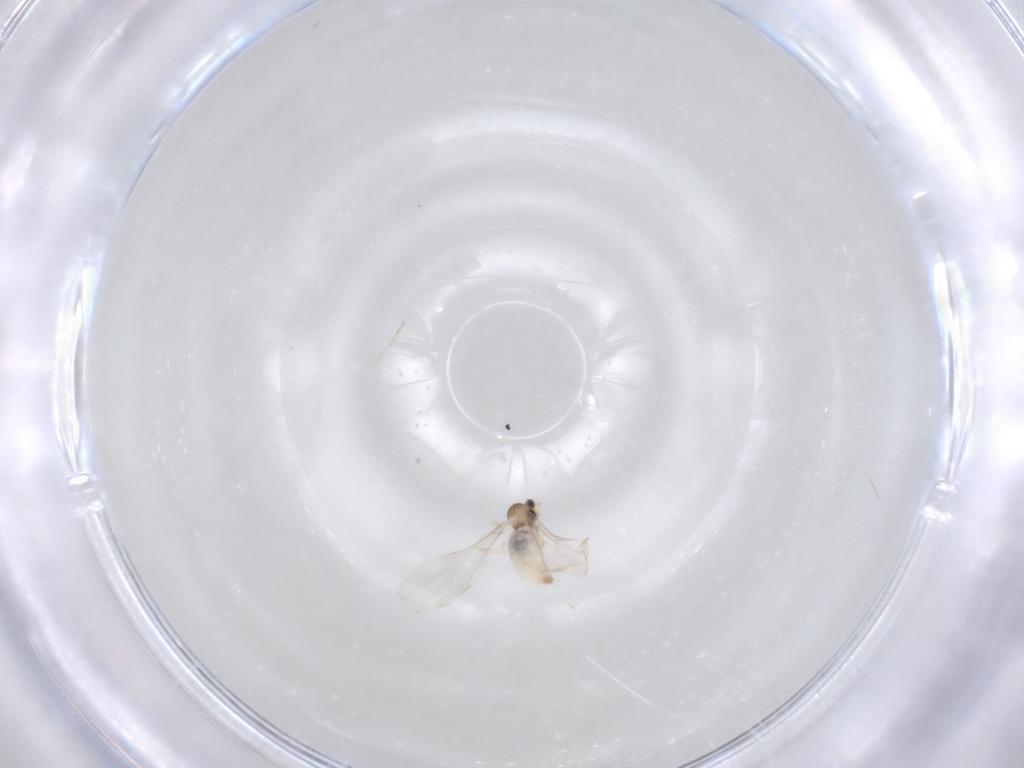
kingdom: Animalia
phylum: Arthropoda
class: Insecta
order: Diptera
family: Cecidomyiidae
